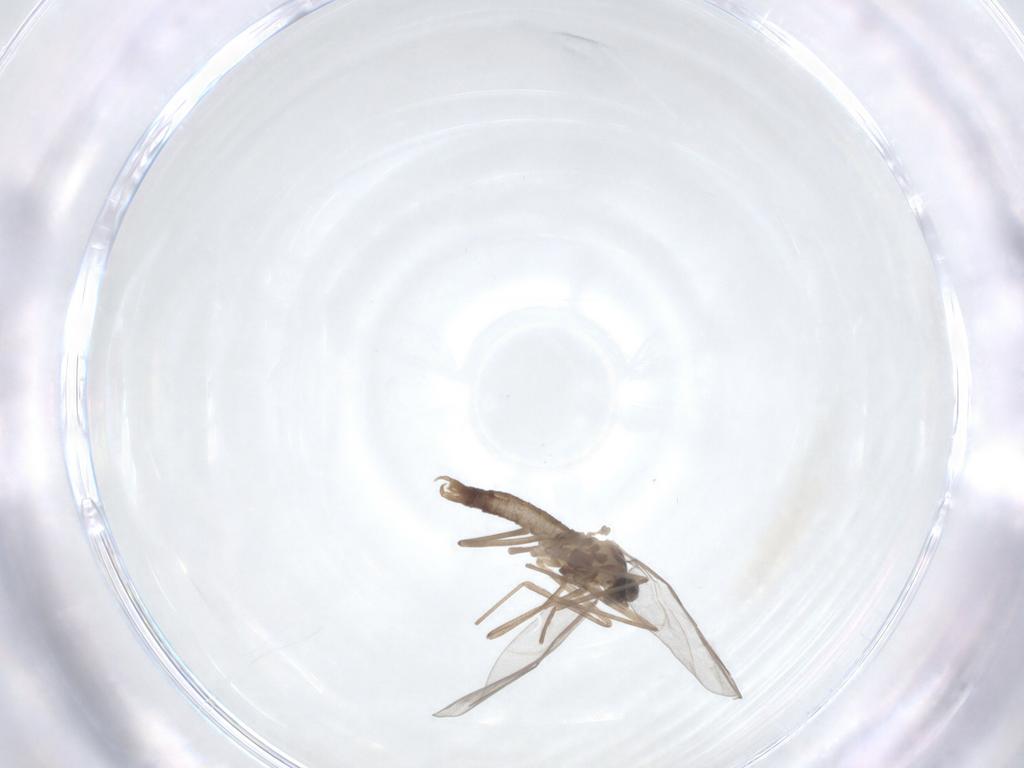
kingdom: Animalia
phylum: Arthropoda
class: Insecta
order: Diptera
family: Cecidomyiidae
